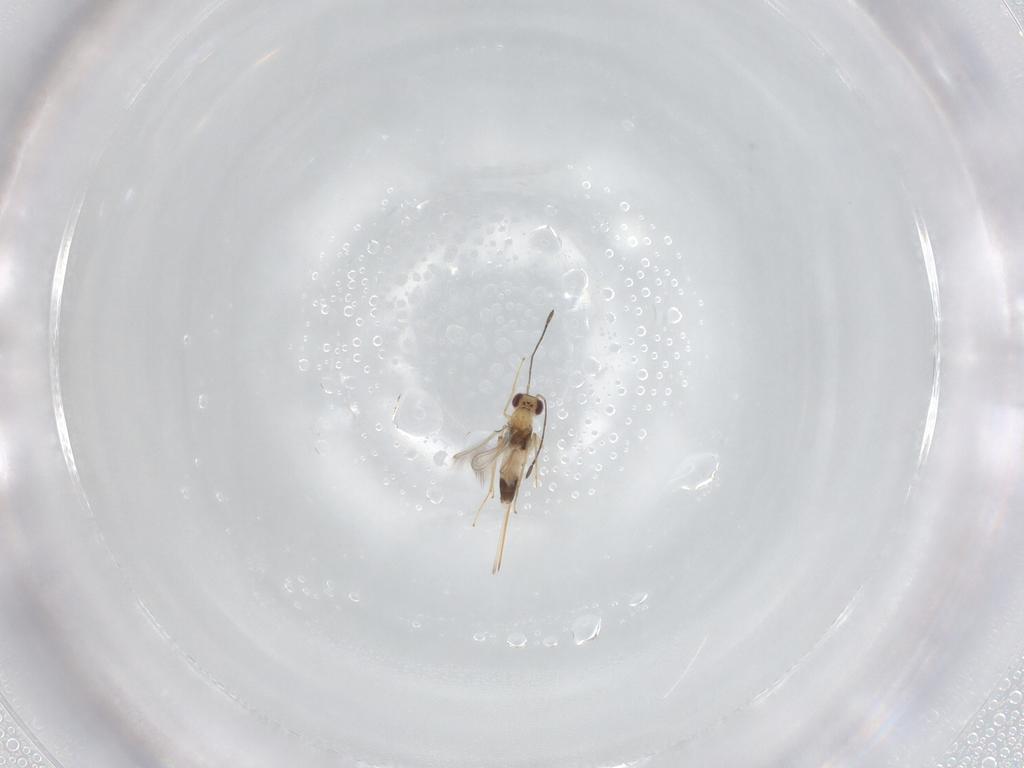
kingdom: Animalia
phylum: Arthropoda
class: Insecta
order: Hymenoptera
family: Mymaridae
